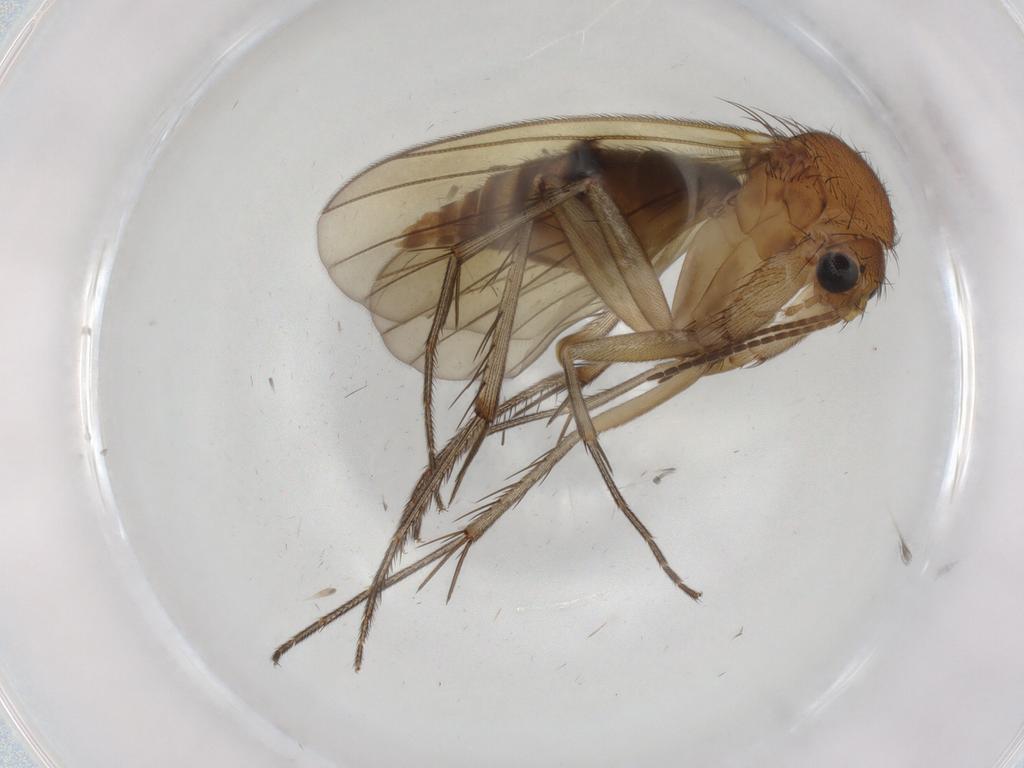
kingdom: Animalia
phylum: Arthropoda
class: Insecta
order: Diptera
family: Mycetophilidae
